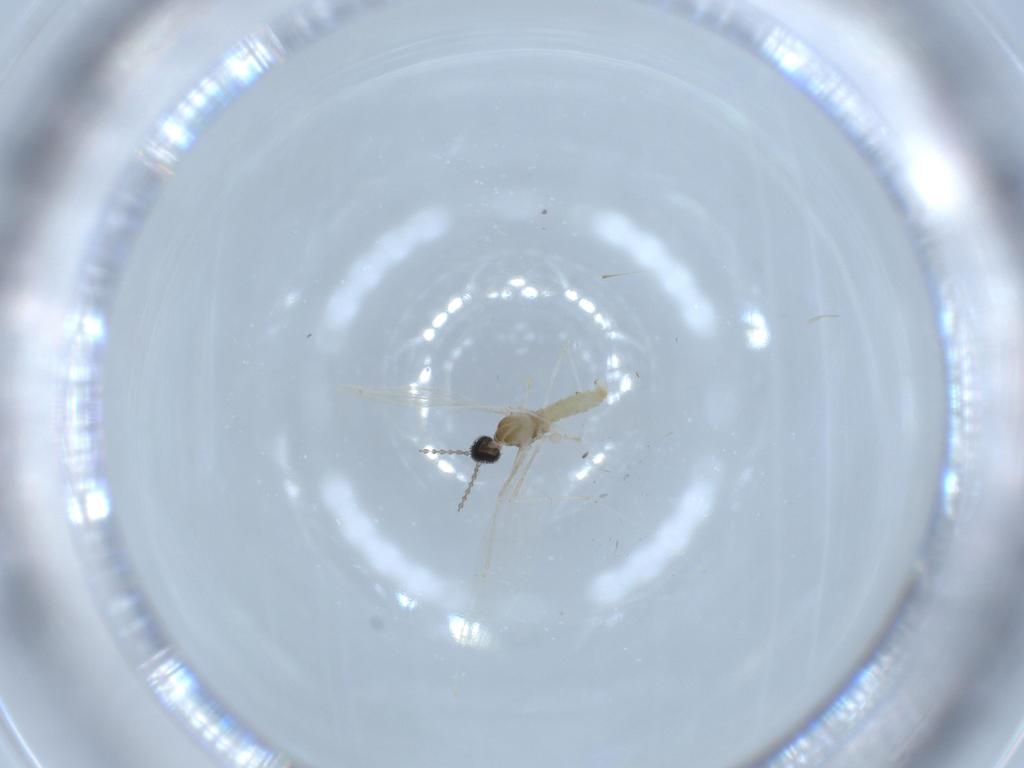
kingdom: Animalia
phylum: Arthropoda
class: Insecta
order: Diptera
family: Cecidomyiidae
